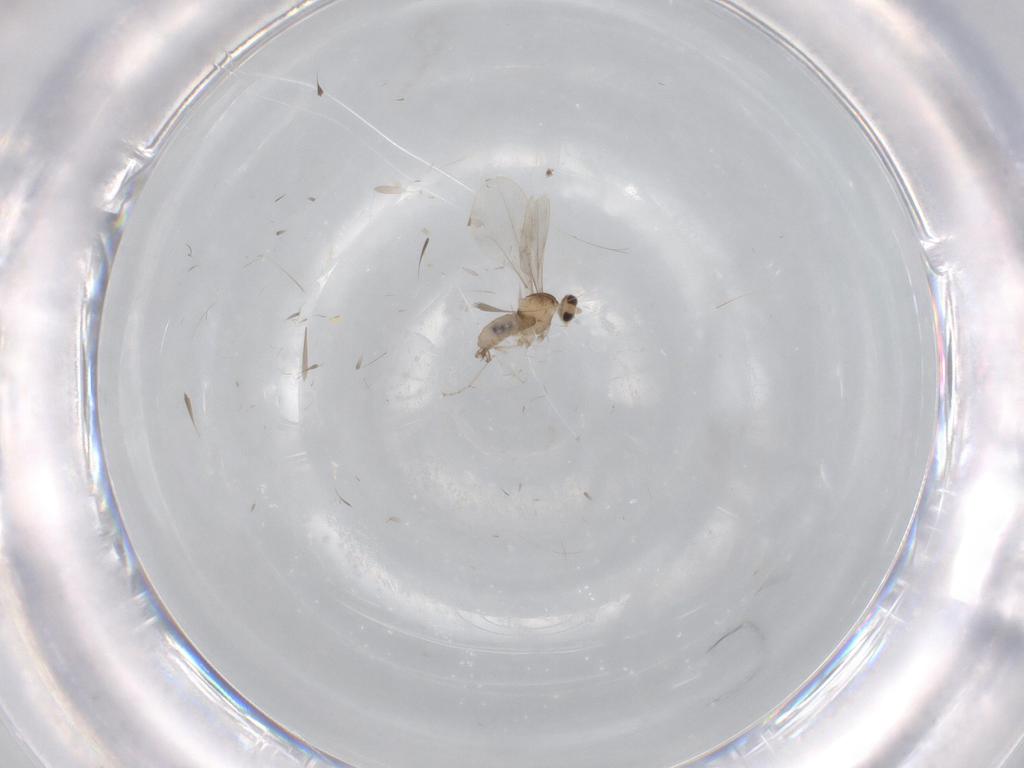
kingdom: Animalia
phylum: Arthropoda
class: Insecta
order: Diptera
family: Cecidomyiidae
